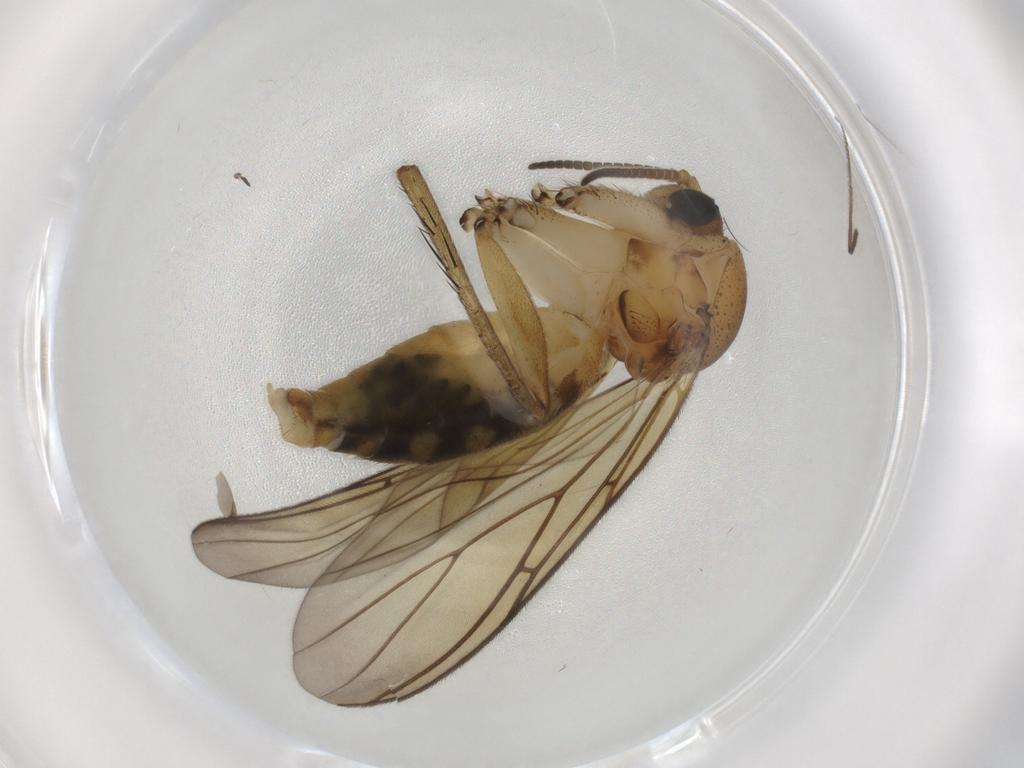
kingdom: Animalia
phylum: Arthropoda
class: Insecta
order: Diptera
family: Mycetophilidae
